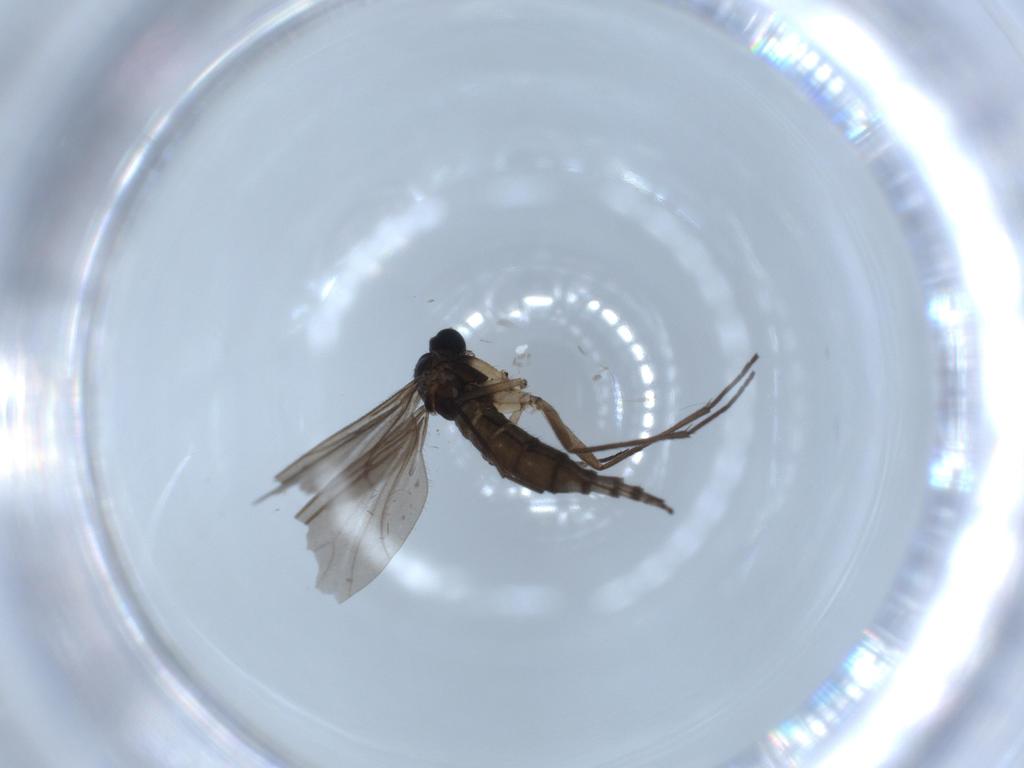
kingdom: Animalia
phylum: Arthropoda
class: Insecta
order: Diptera
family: Sciaridae
